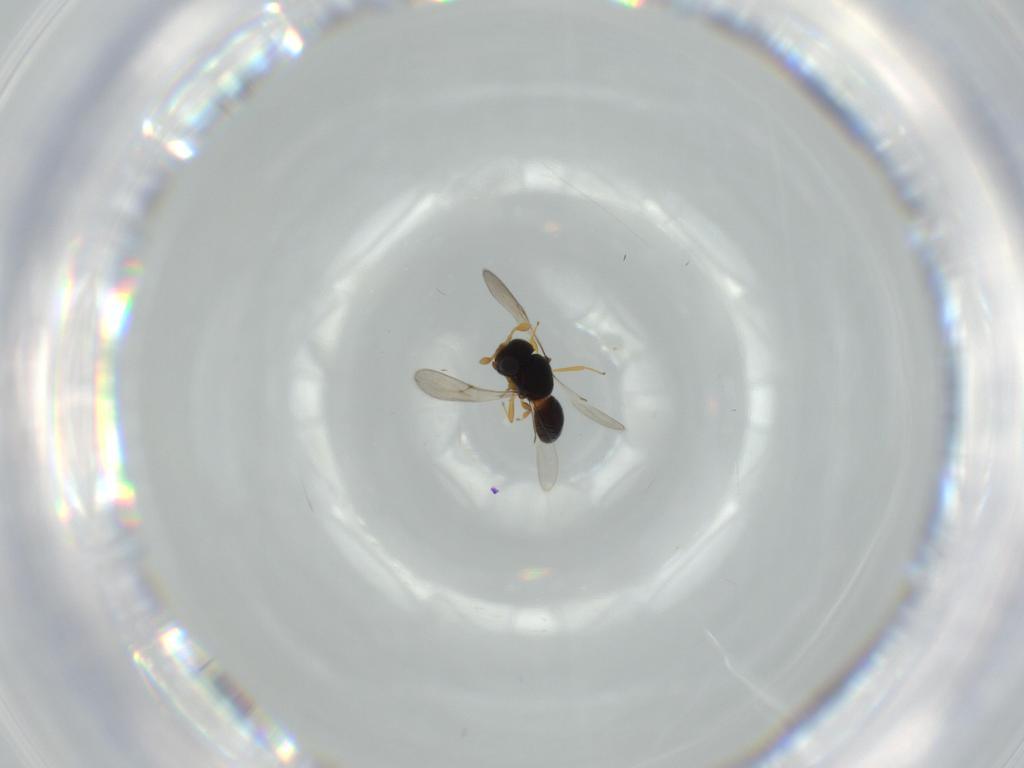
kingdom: Animalia
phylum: Arthropoda
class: Insecta
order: Hymenoptera
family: Scelionidae
